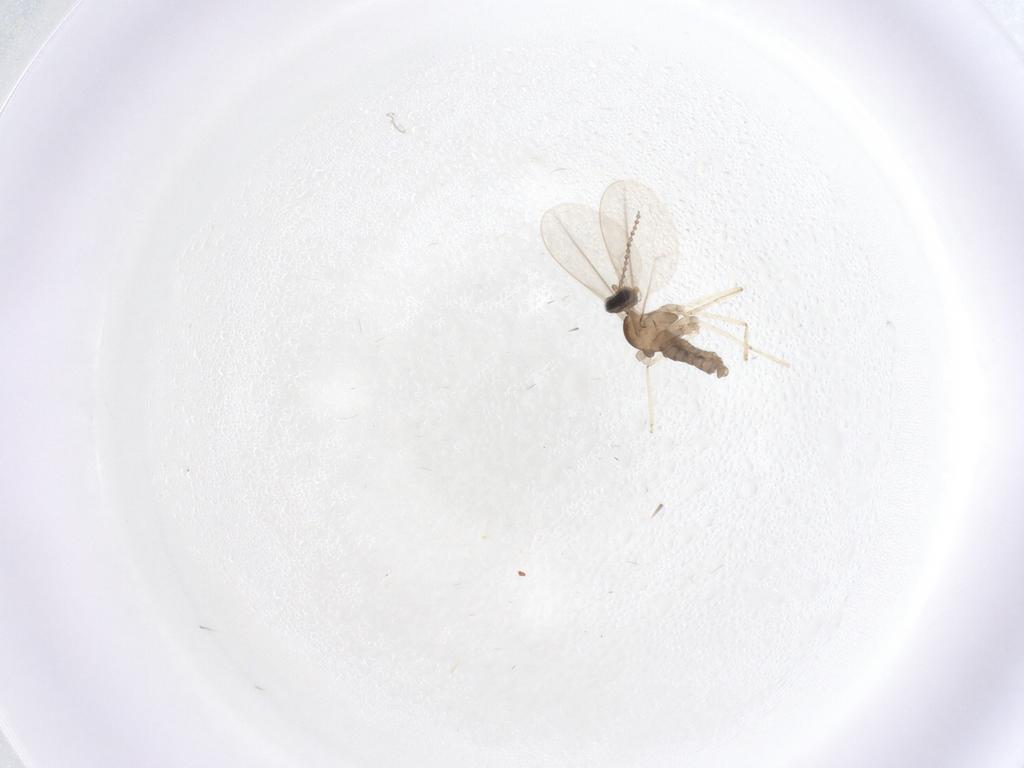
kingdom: Animalia
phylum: Arthropoda
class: Insecta
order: Diptera
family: Cecidomyiidae
